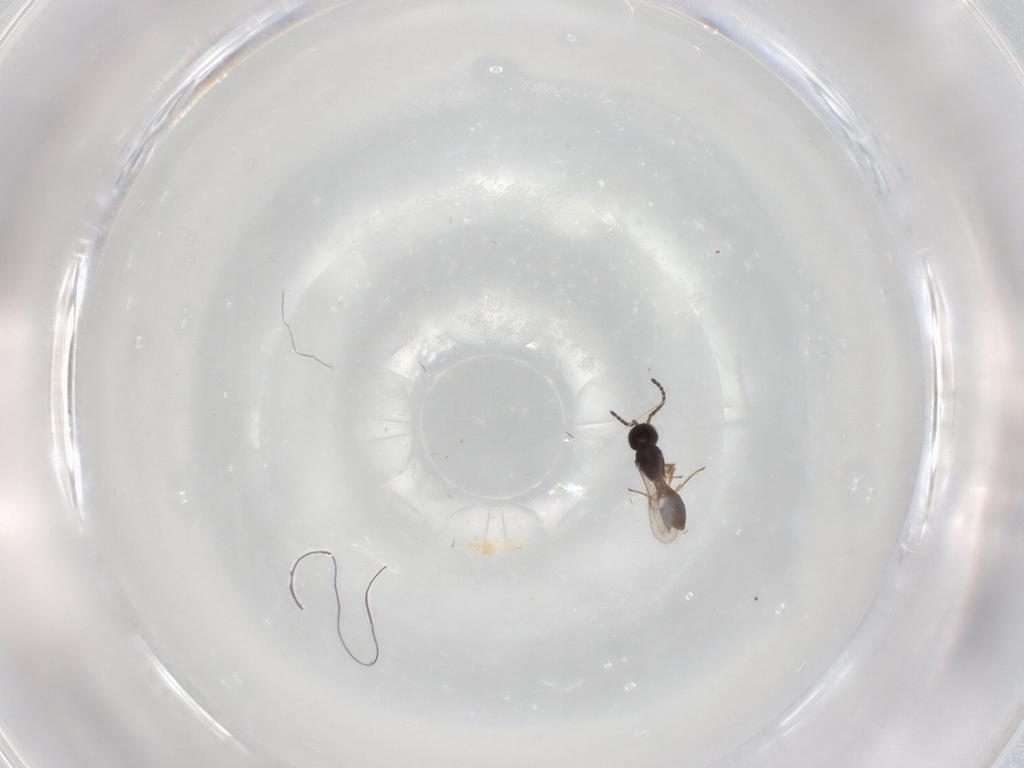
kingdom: Animalia
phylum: Arthropoda
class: Insecta
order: Hymenoptera
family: Scelionidae
